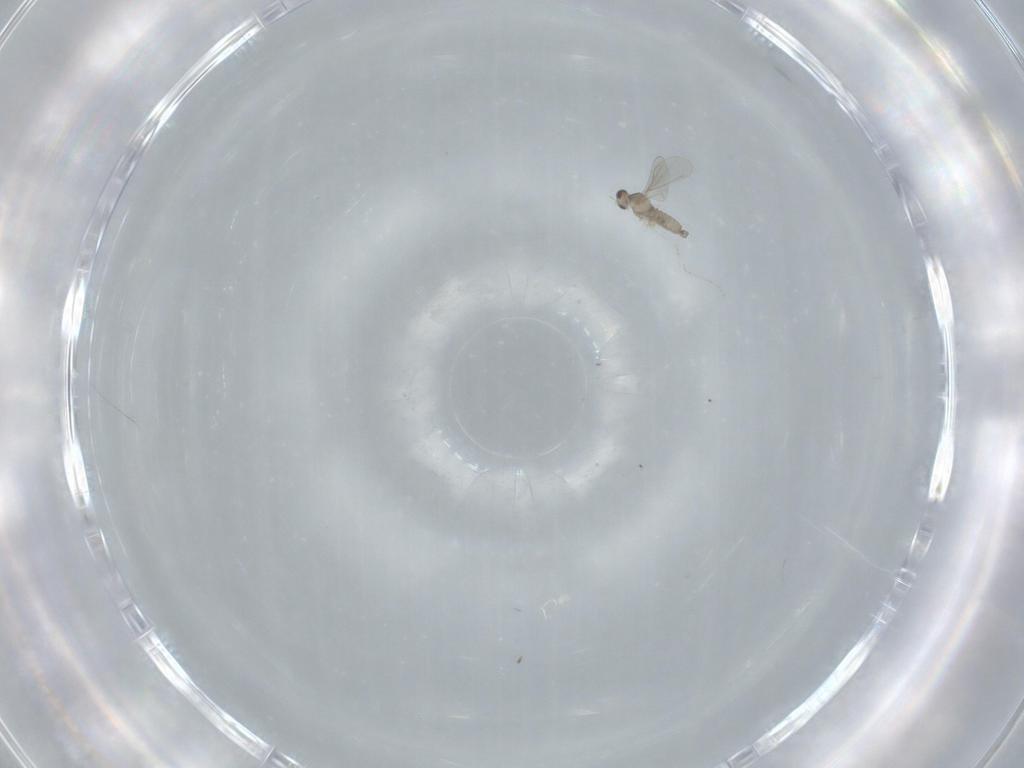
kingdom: Animalia
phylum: Arthropoda
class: Insecta
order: Diptera
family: Cecidomyiidae
